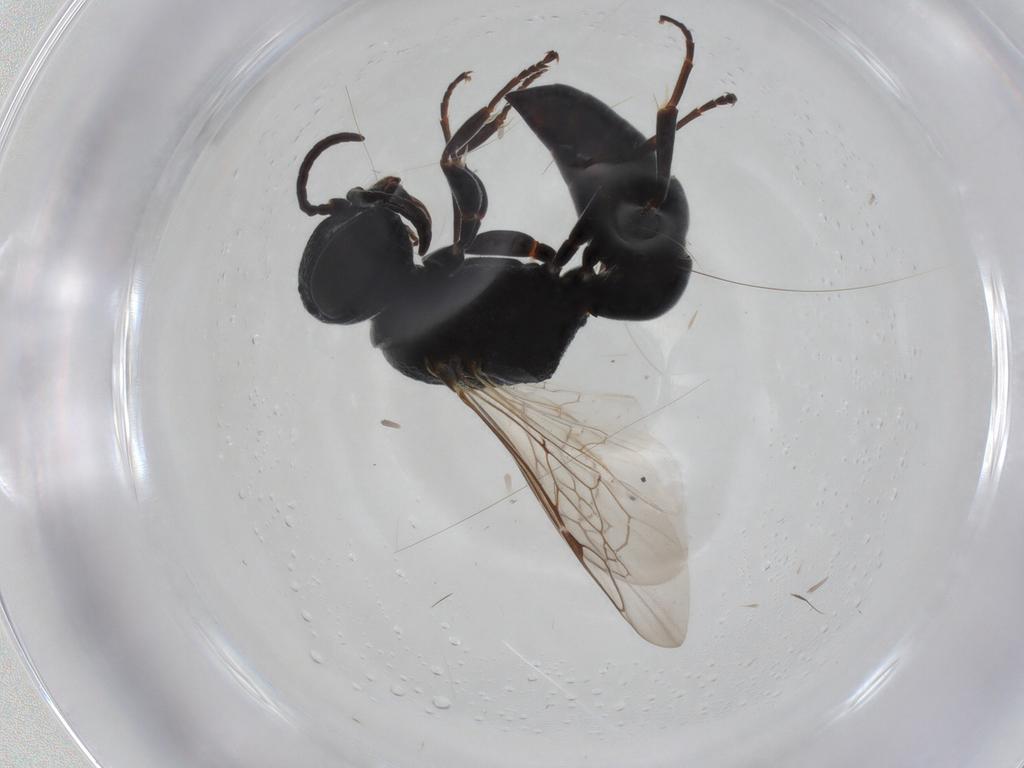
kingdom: Animalia
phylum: Arthropoda
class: Insecta
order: Hymenoptera
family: Crabronidae
